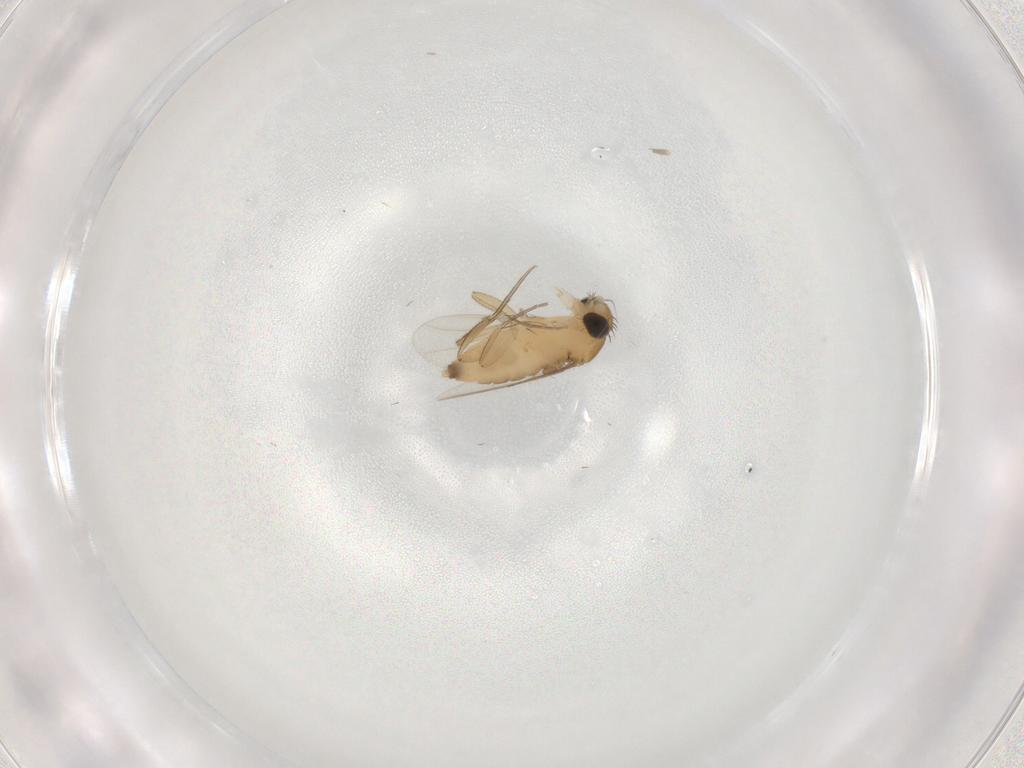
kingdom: Animalia
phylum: Arthropoda
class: Insecta
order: Diptera
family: Phoridae
